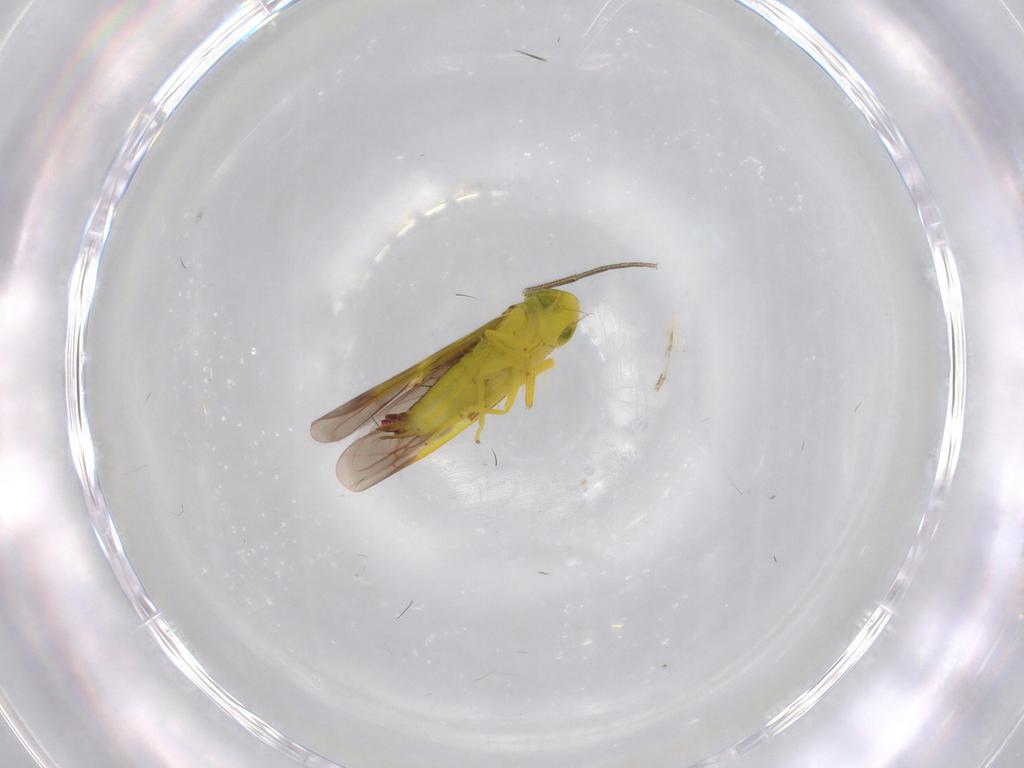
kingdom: Animalia
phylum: Arthropoda
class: Insecta
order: Hemiptera
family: Cicadellidae
